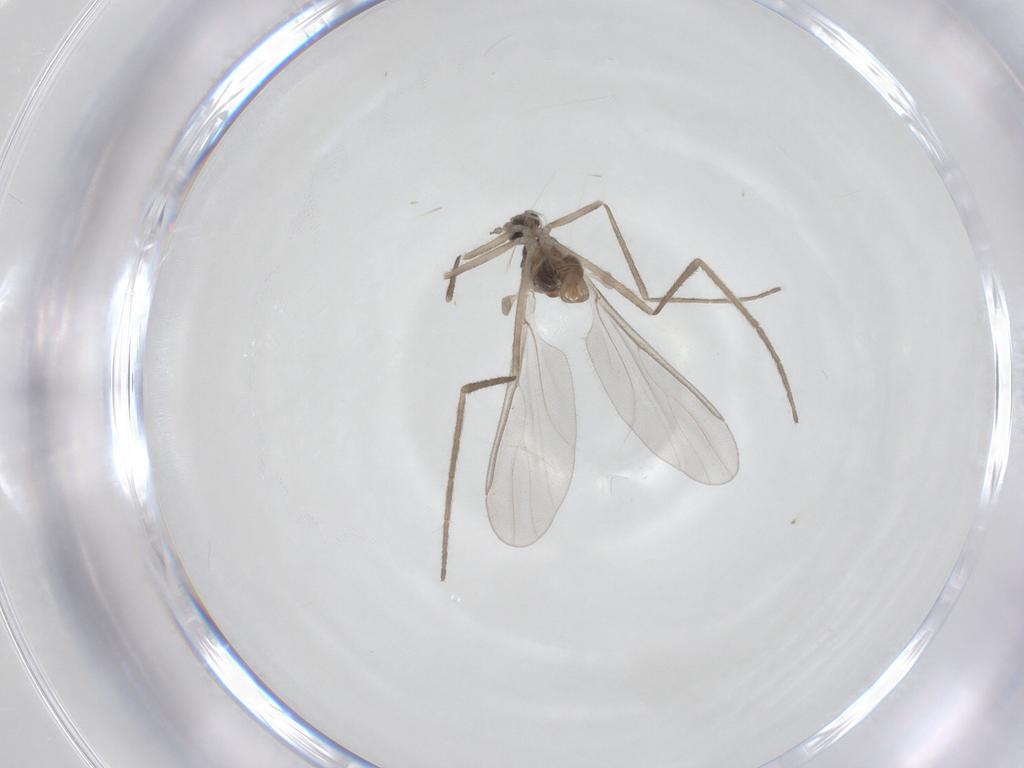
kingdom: Animalia
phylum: Arthropoda
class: Insecta
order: Diptera
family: Cecidomyiidae
